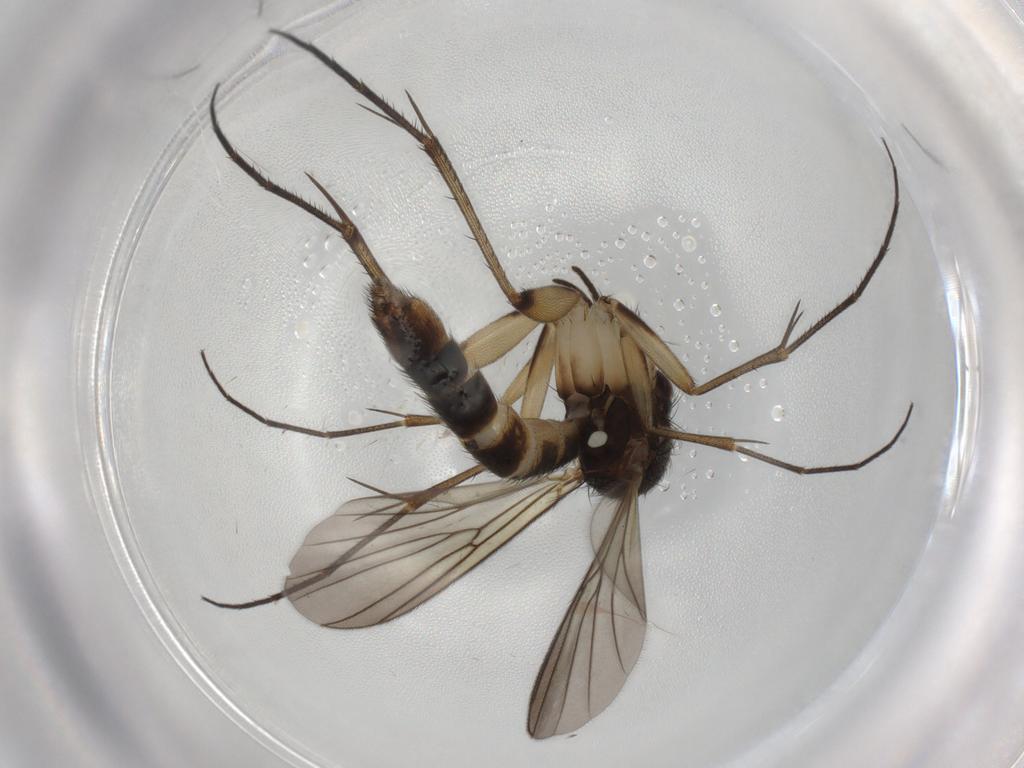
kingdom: Animalia
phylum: Arthropoda
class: Insecta
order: Diptera
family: Mycetophilidae
